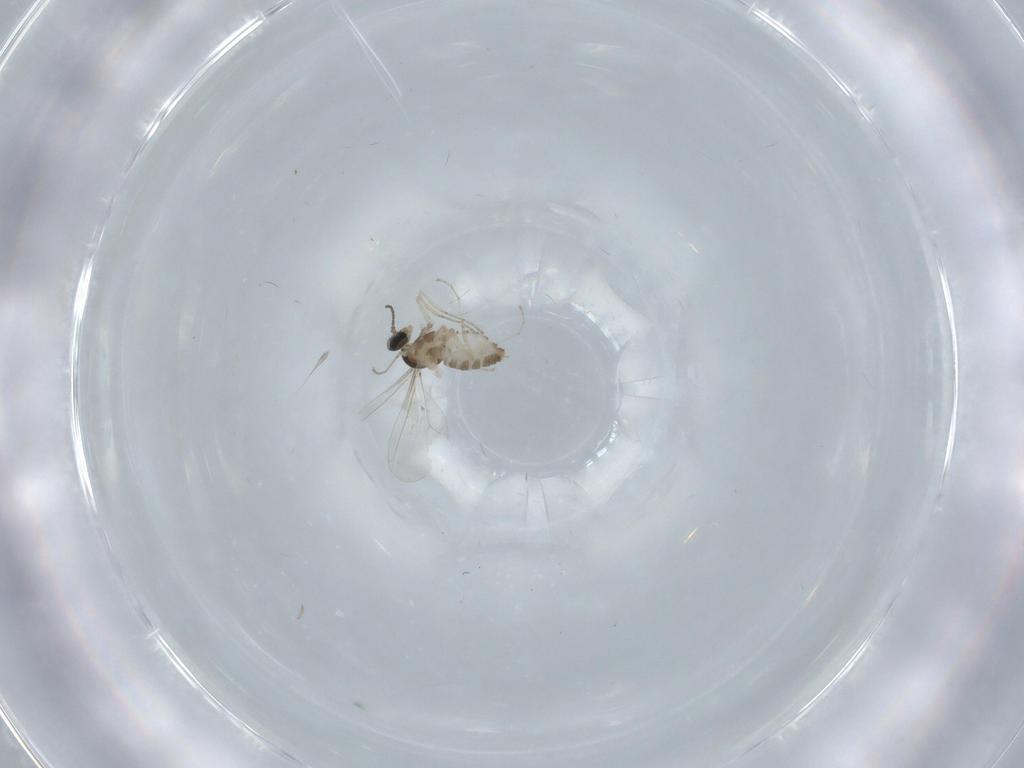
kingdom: Animalia
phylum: Arthropoda
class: Insecta
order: Diptera
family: Cecidomyiidae
